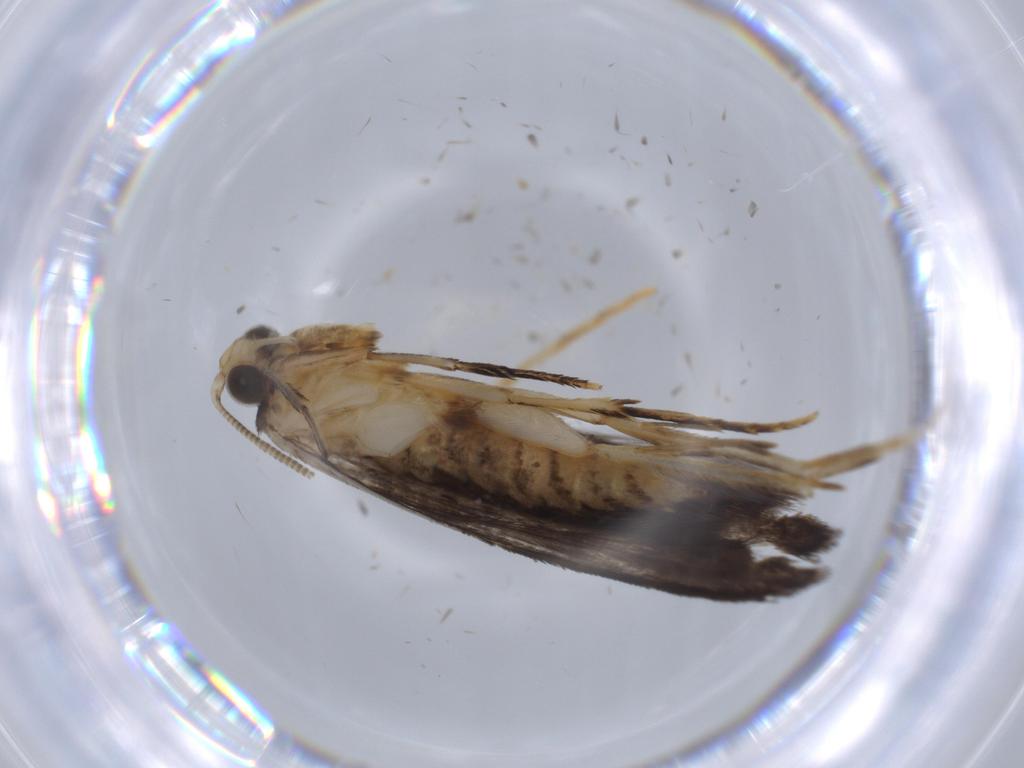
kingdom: Animalia
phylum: Arthropoda
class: Insecta
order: Lepidoptera
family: Tineidae
